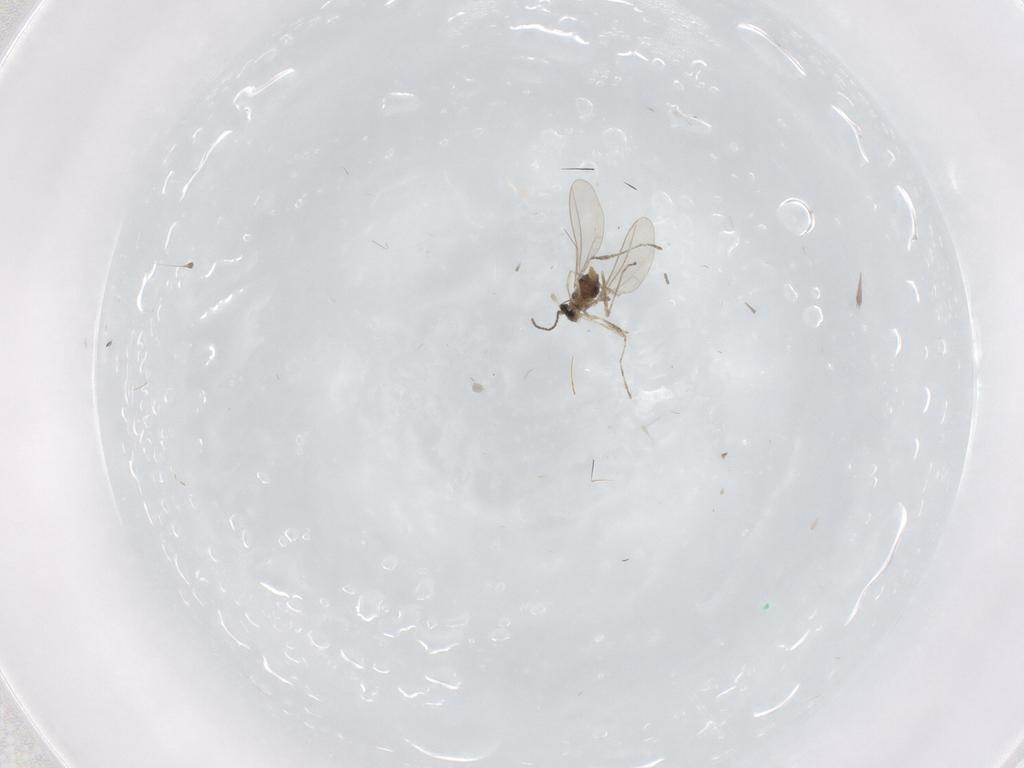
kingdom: Animalia
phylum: Arthropoda
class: Insecta
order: Diptera
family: Cecidomyiidae
